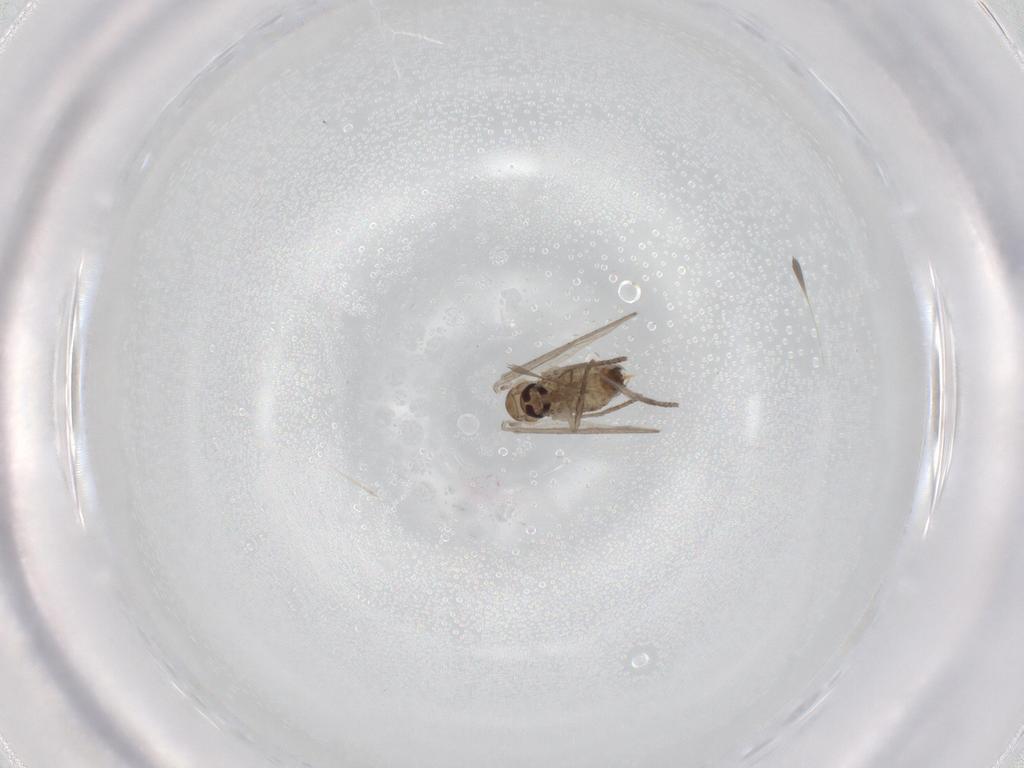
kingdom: Animalia
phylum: Arthropoda
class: Insecta
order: Diptera
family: Psychodidae
